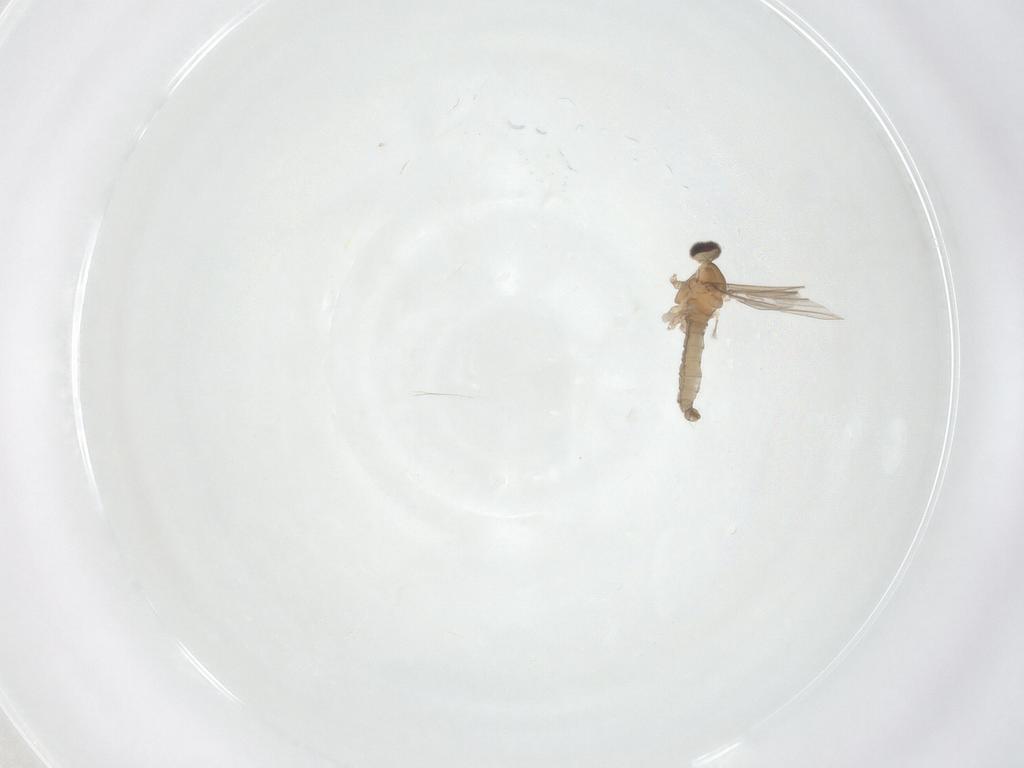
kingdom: Animalia
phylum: Arthropoda
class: Insecta
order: Diptera
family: Cecidomyiidae
